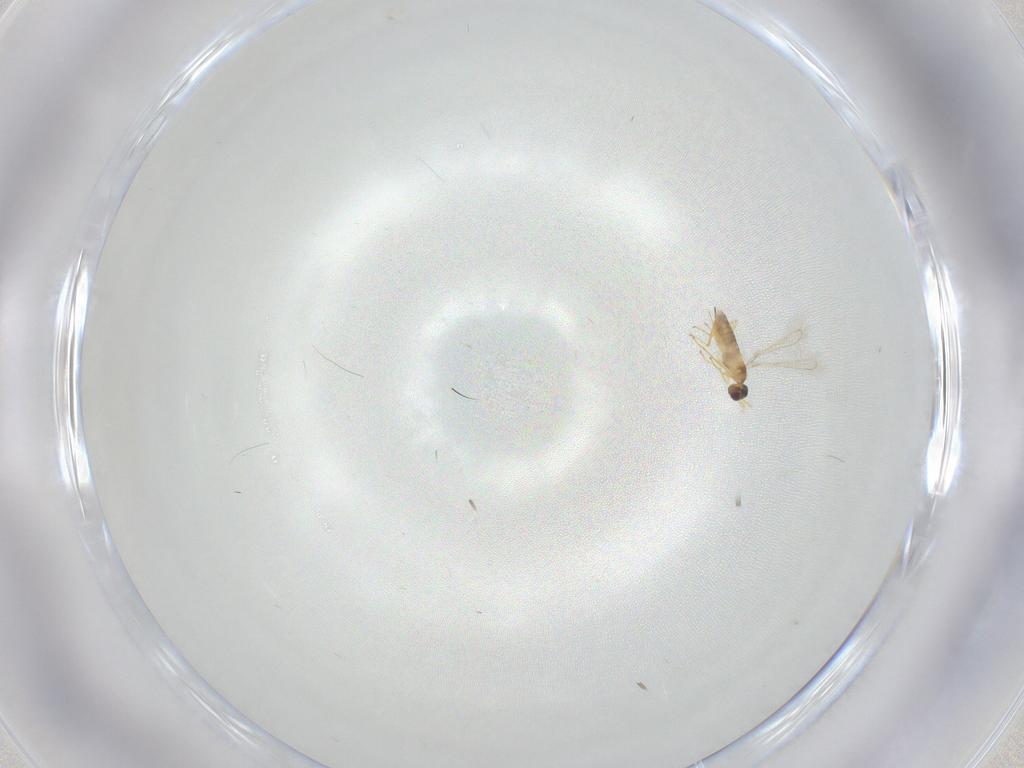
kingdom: Animalia
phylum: Arthropoda
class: Insecta
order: Hymenoptera
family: Mymaridae
